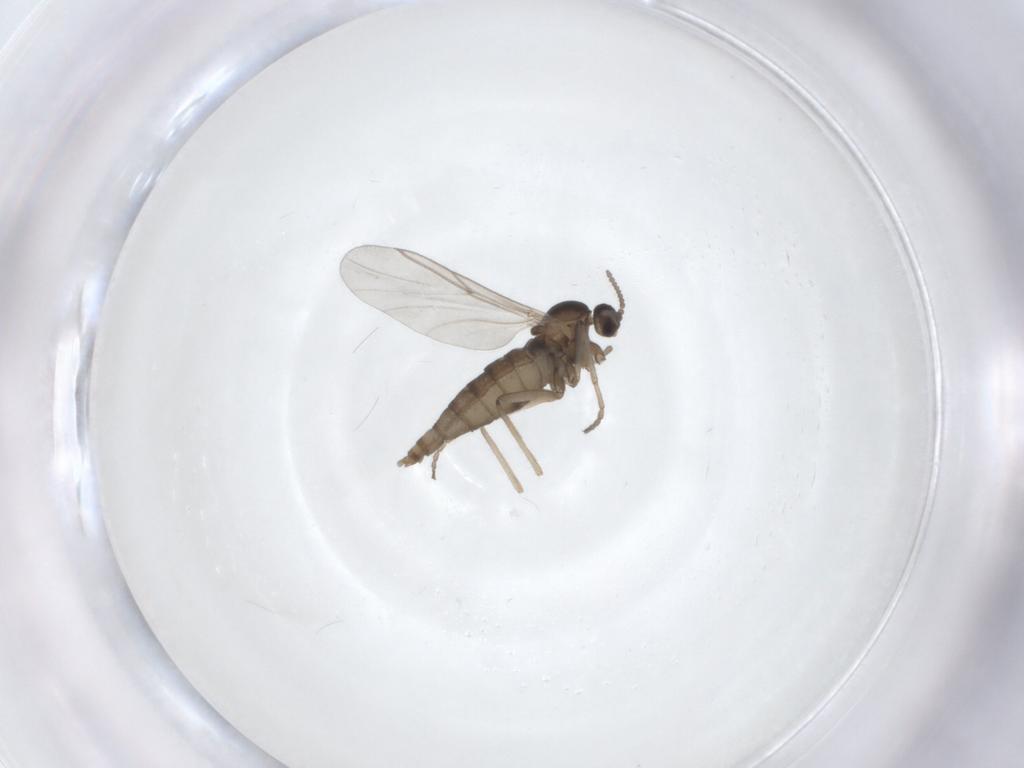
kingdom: Animalia
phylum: Arthropoda
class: Insecta
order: Diptera
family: Cecidomyiidae
